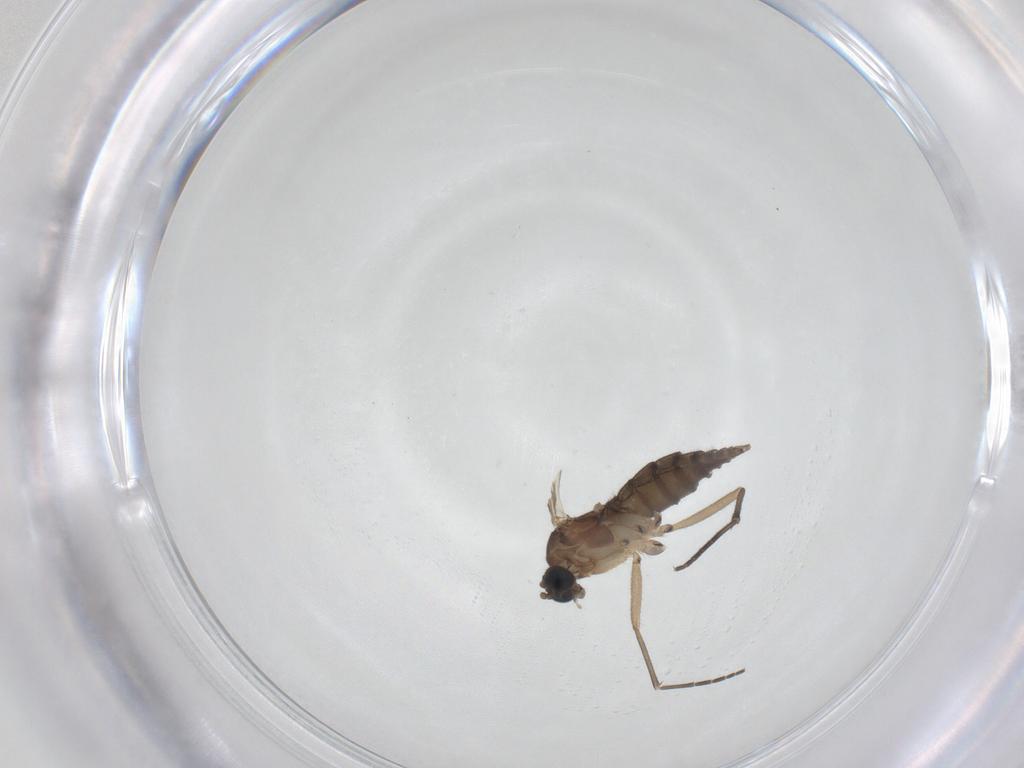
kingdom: Animalia
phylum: Arthropoda
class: Insecta
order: Diptera
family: Sciaridae
